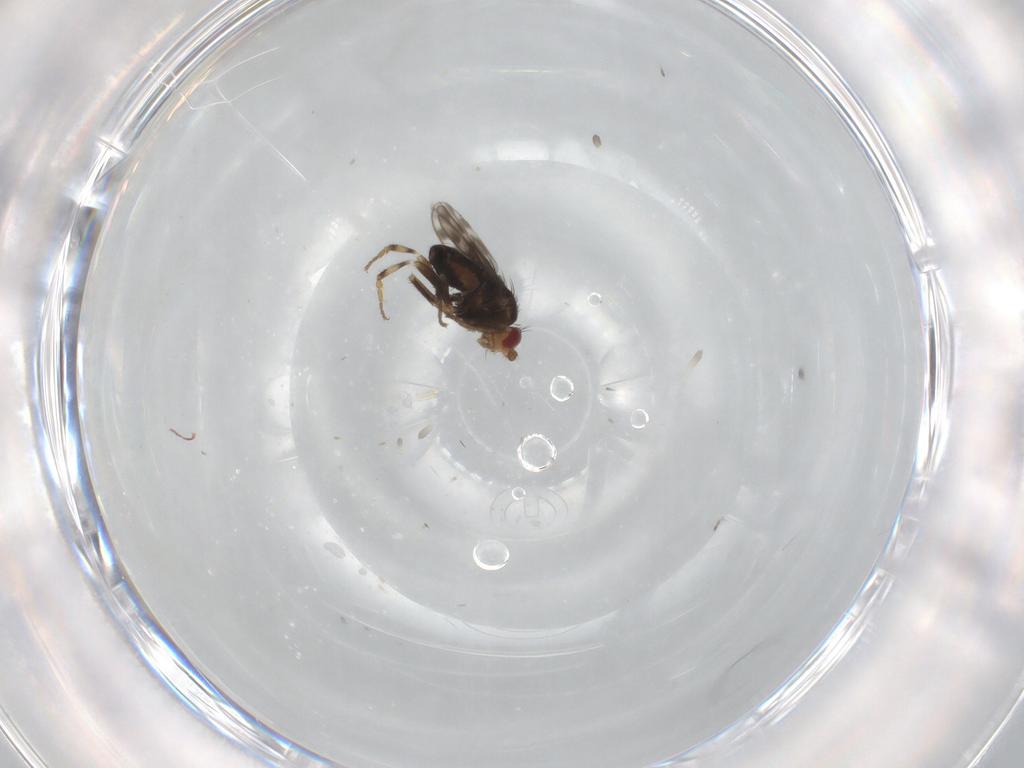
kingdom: Animalia
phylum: Arthropoda
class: Insecta
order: Diptera
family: Sphaeroceridae
